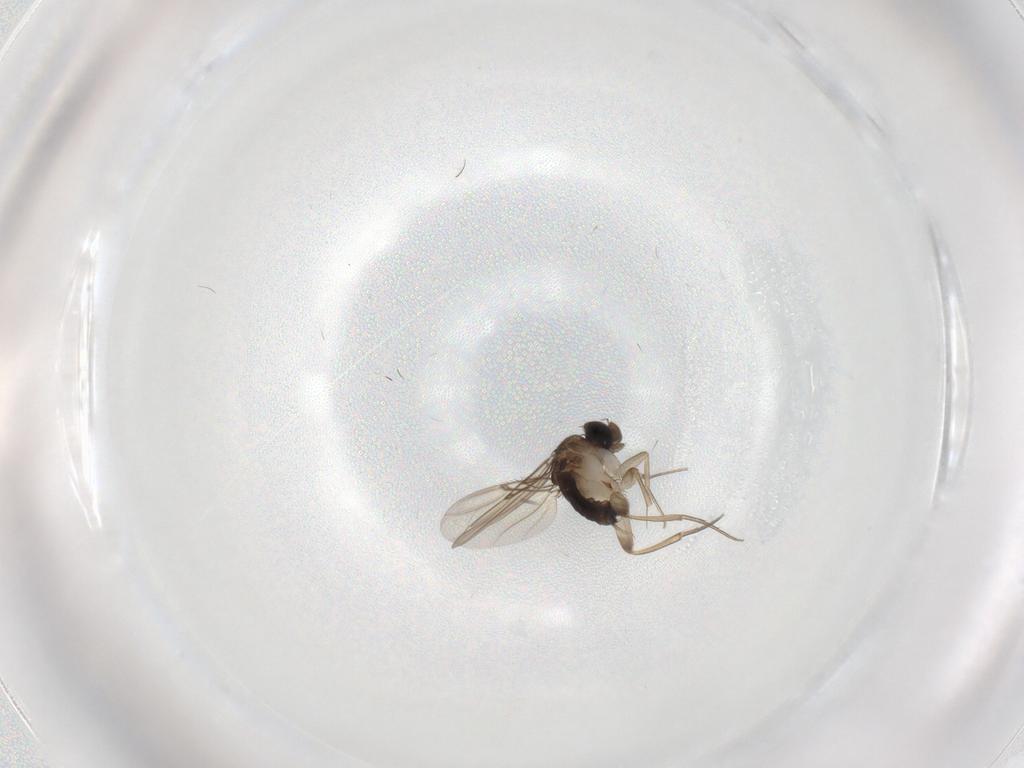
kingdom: Animalia
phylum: Arthropoda
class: Insecta
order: Diptera
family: Phoridae
